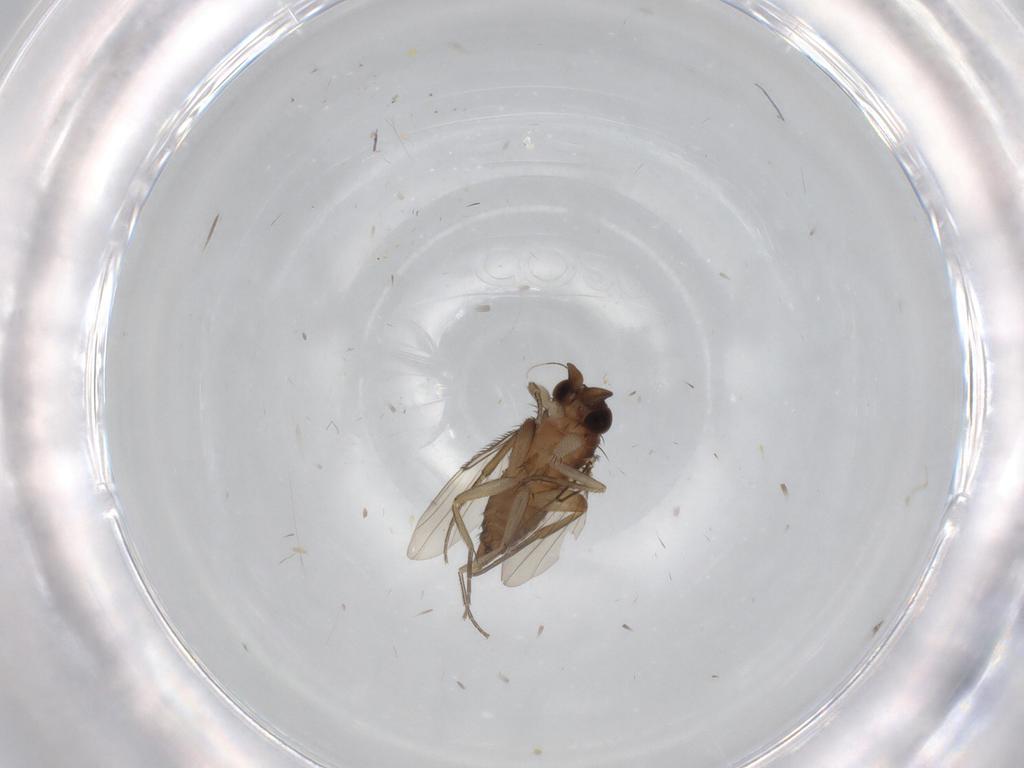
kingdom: Animalia
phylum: Arthropoda
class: Insecta
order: Diptera
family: Phoridae
